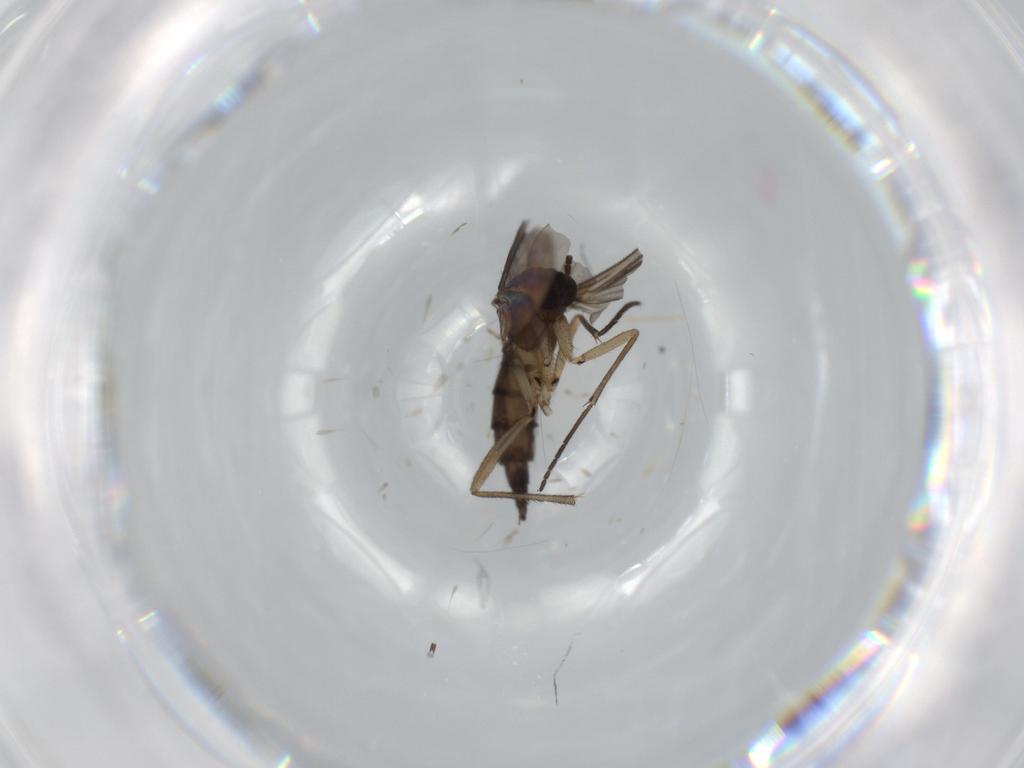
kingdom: Animalia
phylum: Arthropoda
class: Insecta
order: Diptera
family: Sciaridae
